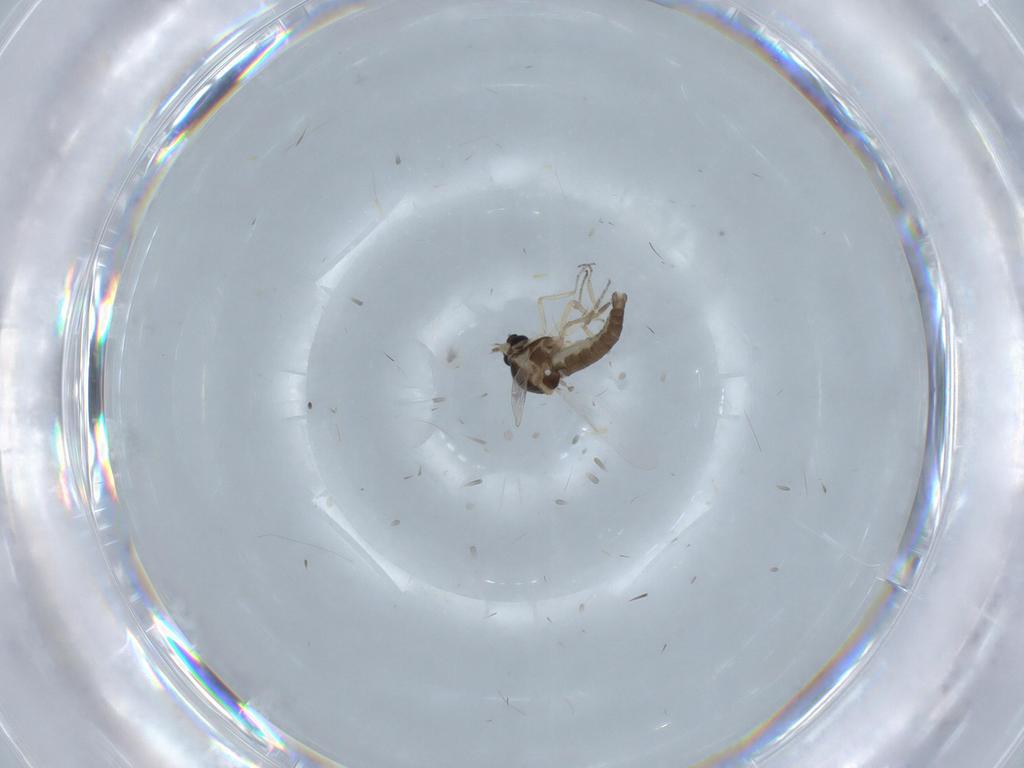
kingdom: Animalia
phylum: Arthropoda
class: Insecta
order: Diptera
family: Ceratopogonidae
